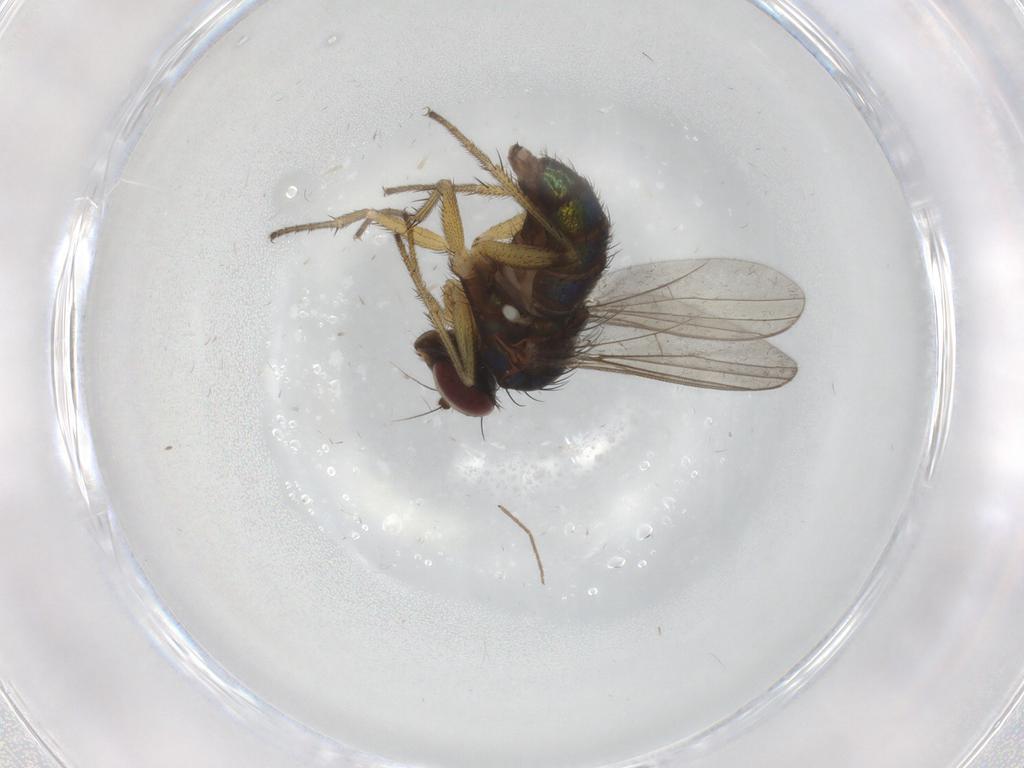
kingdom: Animalia
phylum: Arthropoda
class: Insecta
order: Diptera
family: Dolichopodidae
